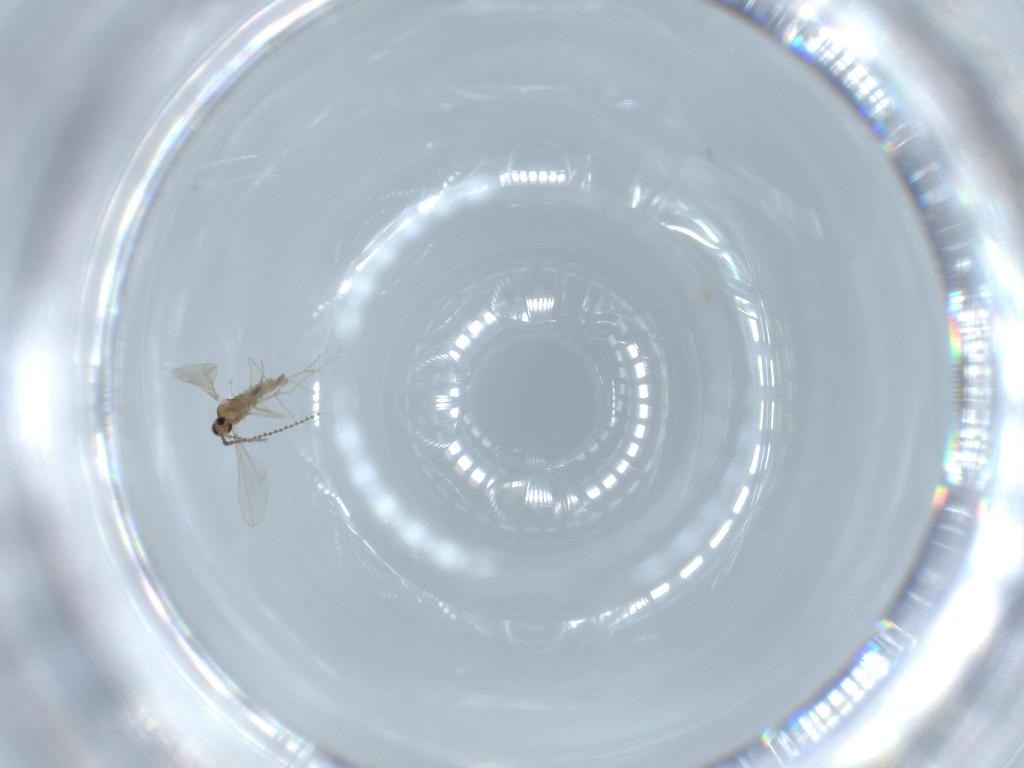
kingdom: Animalia
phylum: Arthropoda
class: Insecta
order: Diptera
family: Cecidomyiidae
